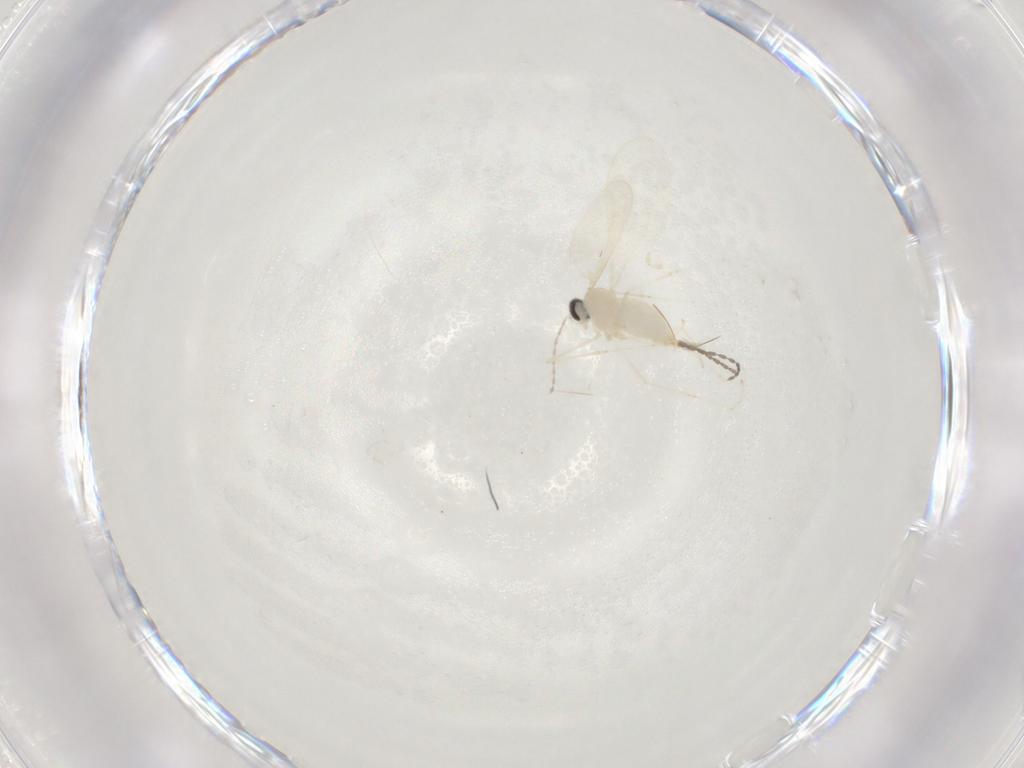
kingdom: Animalia
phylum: Arthropoda
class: Insecta
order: Diptera
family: Cecidomyiidae
